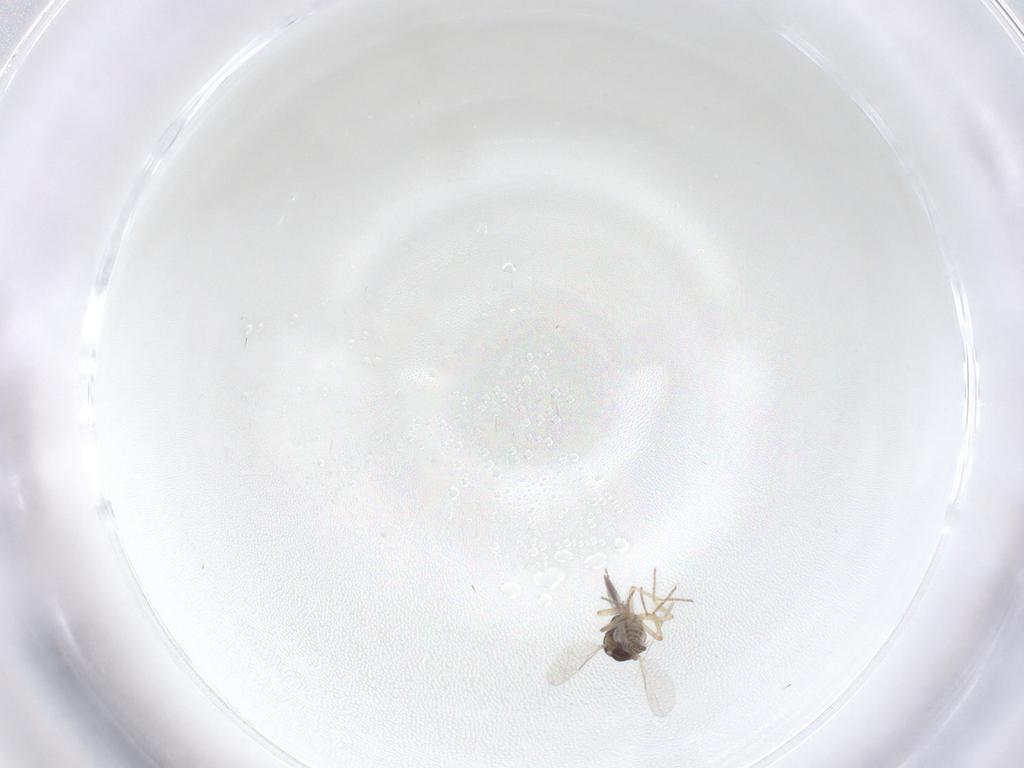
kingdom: Animalia
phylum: Arthropoda
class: Insecta
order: Diptera
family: Ceratopogonidae
